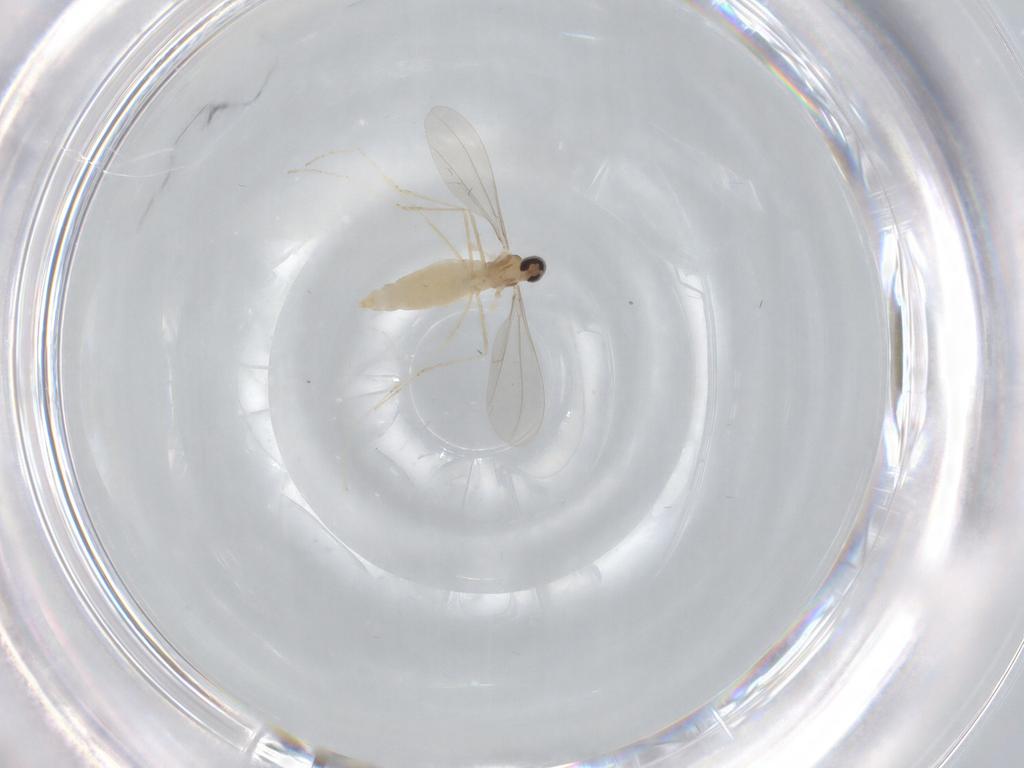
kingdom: Animalia
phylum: Arthropoda
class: Insecta
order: Diptera
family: Cecidomyiidae
